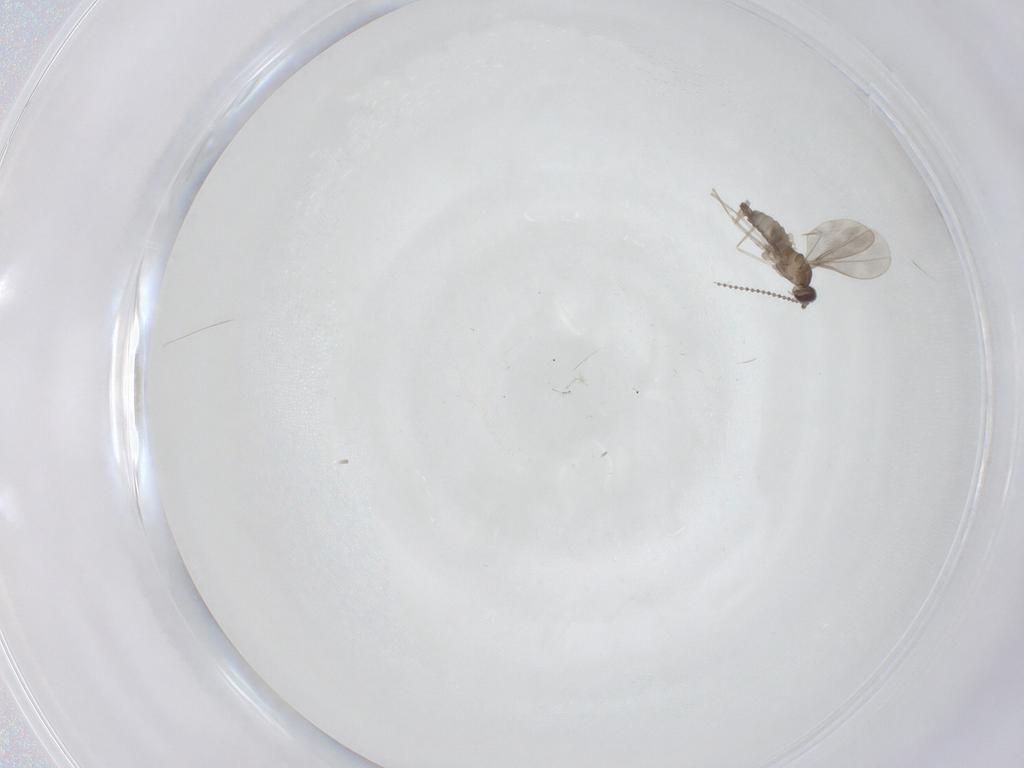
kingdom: Animalia
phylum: Arthropoda
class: Insecta
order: Diptera
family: Cecidomyiidae
